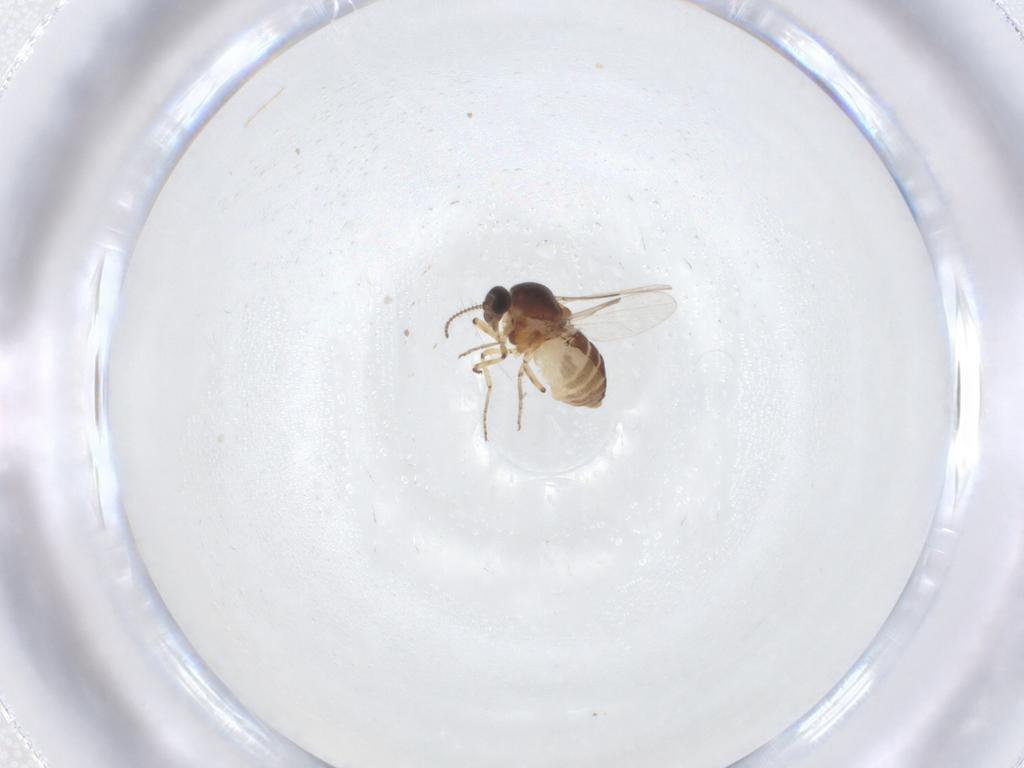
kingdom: Animalia
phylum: Arthropoda
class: Insecta
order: Diptera
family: Ceratopogonidae
